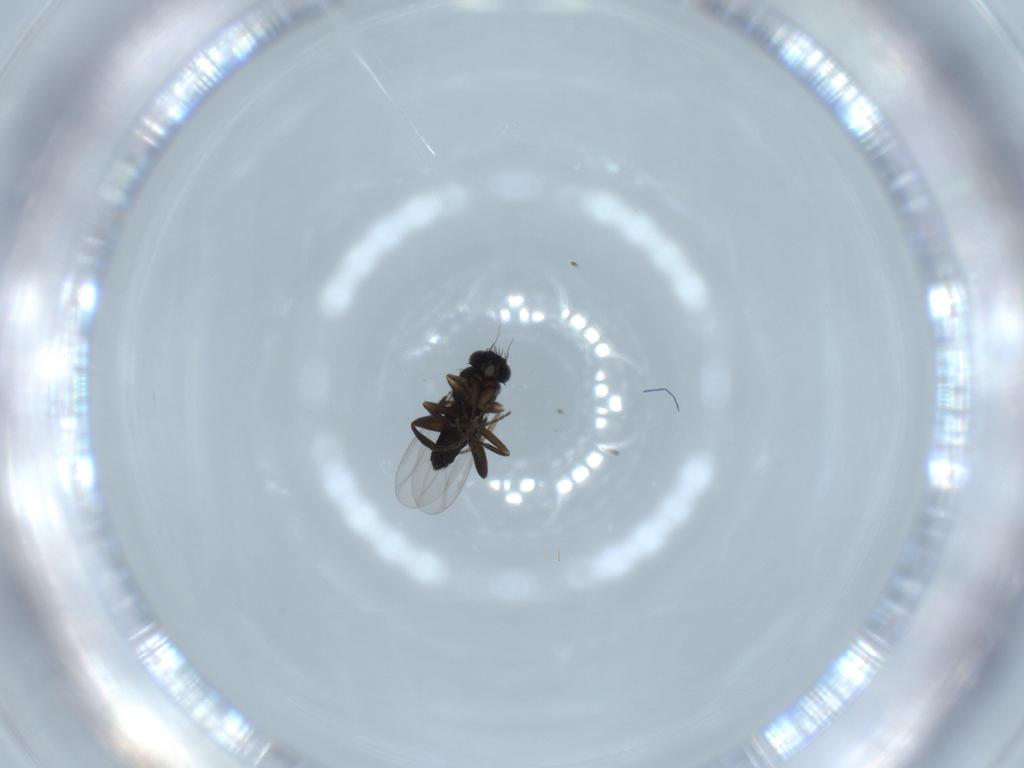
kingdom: Animalia
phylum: Arthropoda
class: Insecta
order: Diptera
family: Phoridae
